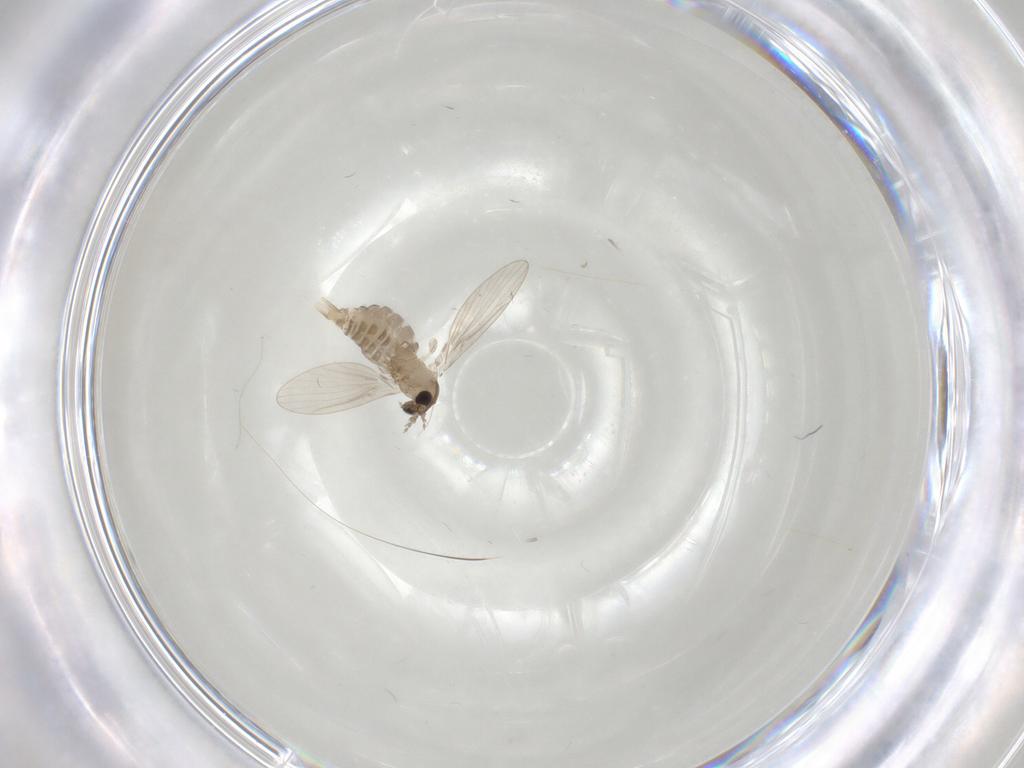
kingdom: Animalia
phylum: Arthropoda
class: Insecta
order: Diptera
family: Psychodidae
